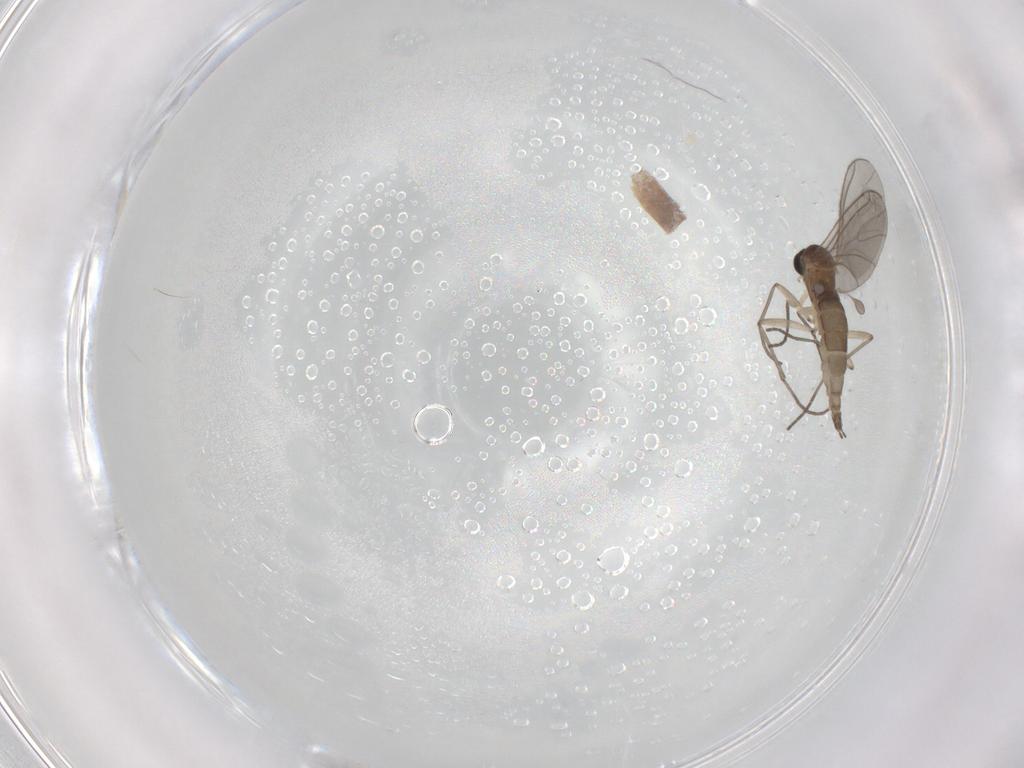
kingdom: Animalia
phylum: Arthropoda
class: Insecta
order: Diptera
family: Sciaridae
